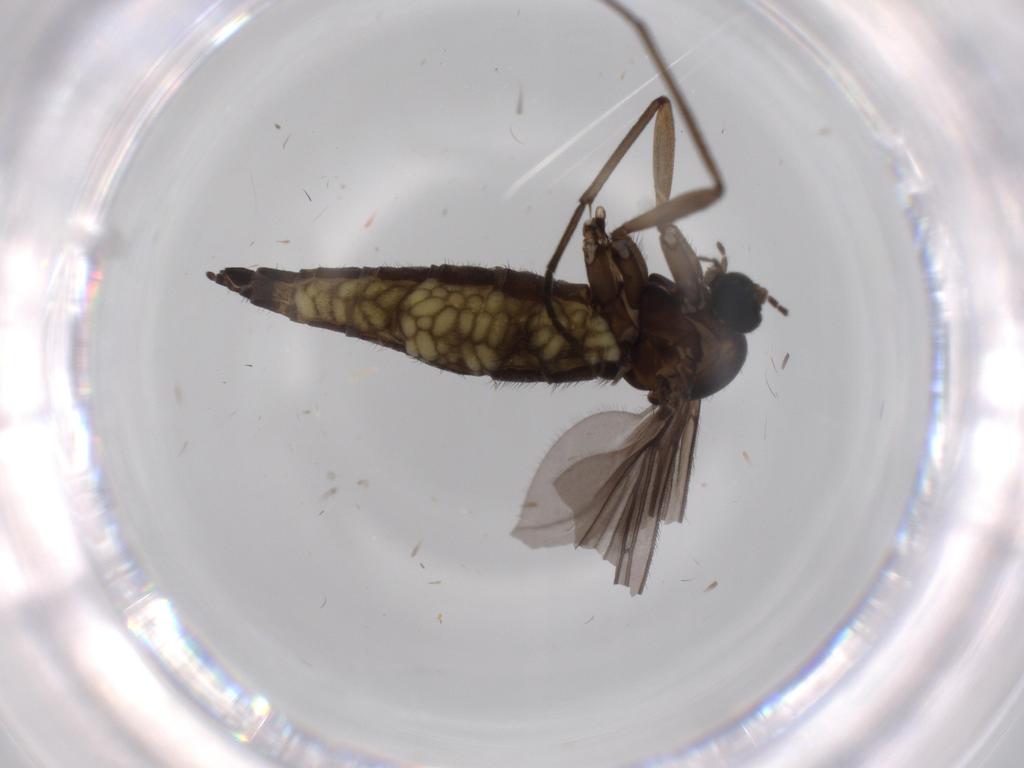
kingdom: Animalia
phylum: Arthropoda
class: Insecta
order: Diptera
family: Sciaridae
